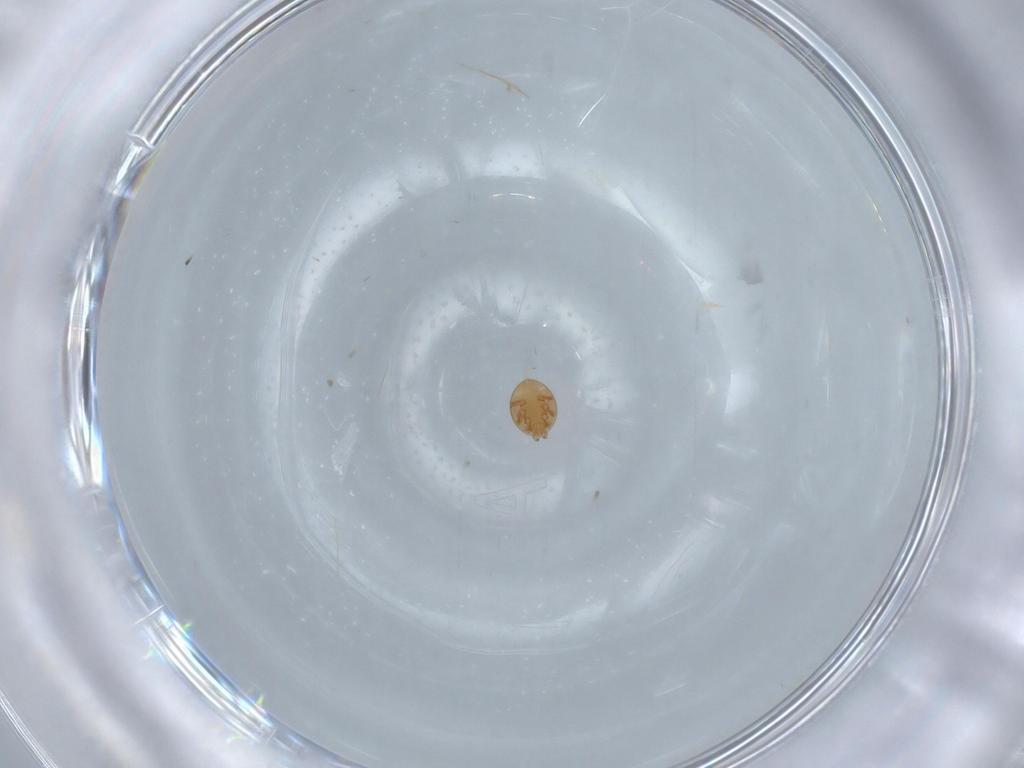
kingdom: Animalia
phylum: Arthropoda
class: Arachnida
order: Mesostigmata
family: Trematuridae
